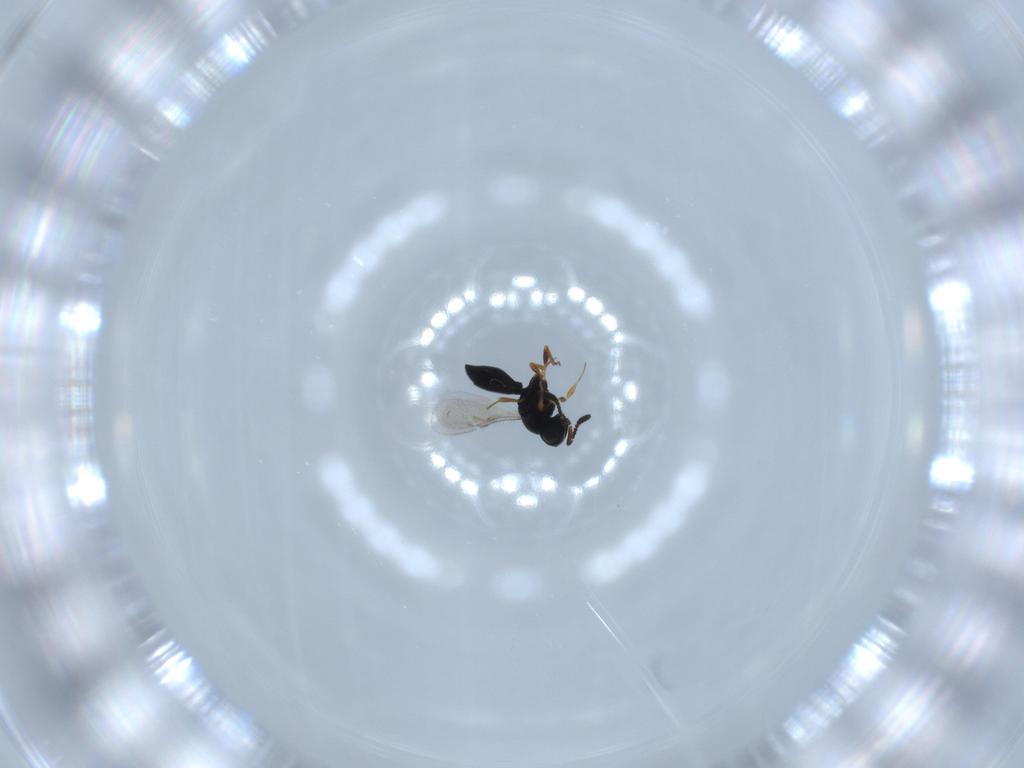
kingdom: Animalia
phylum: Arthropoda
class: Insecta
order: Hymenoptera
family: Scelionidae
